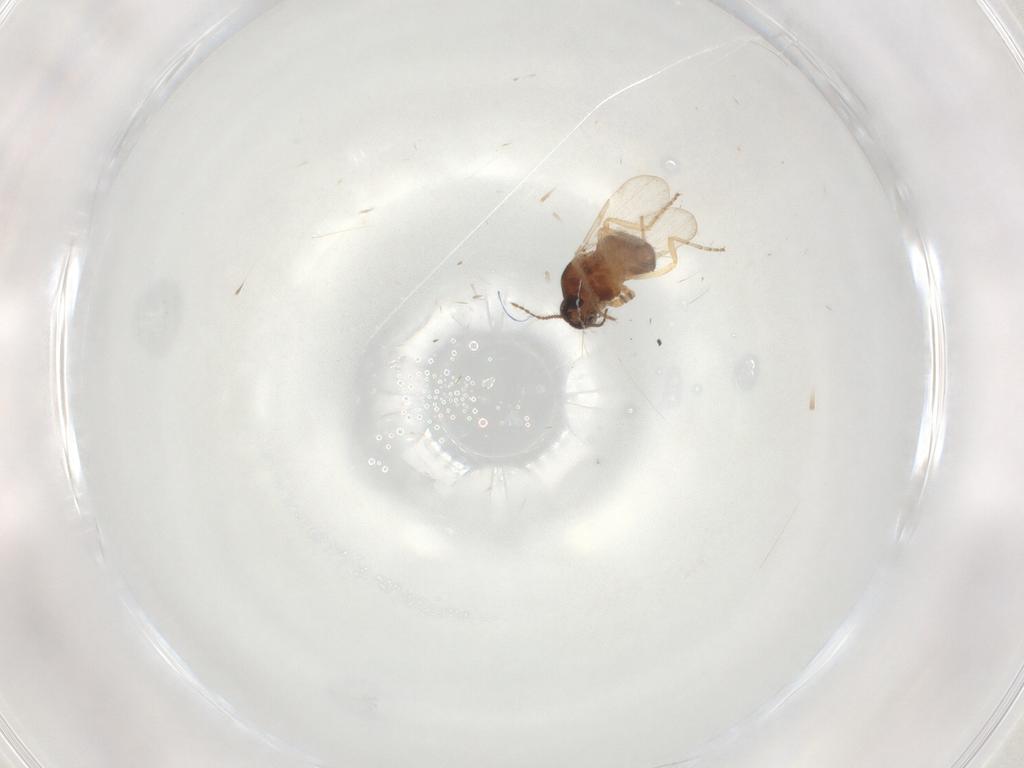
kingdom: Animalia
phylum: Arthropoda
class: Insecta
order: Diptera
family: Ceratopogonidae
